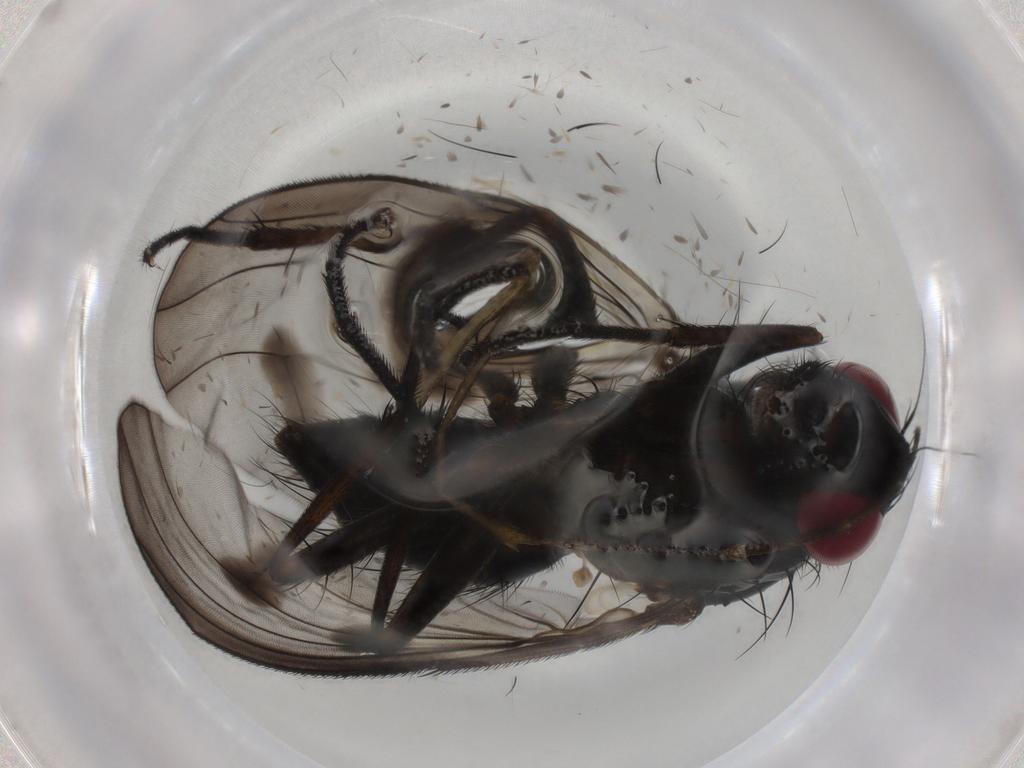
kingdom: Animalia
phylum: Arthropoda
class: Insecta
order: Diptera
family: Muscidae
